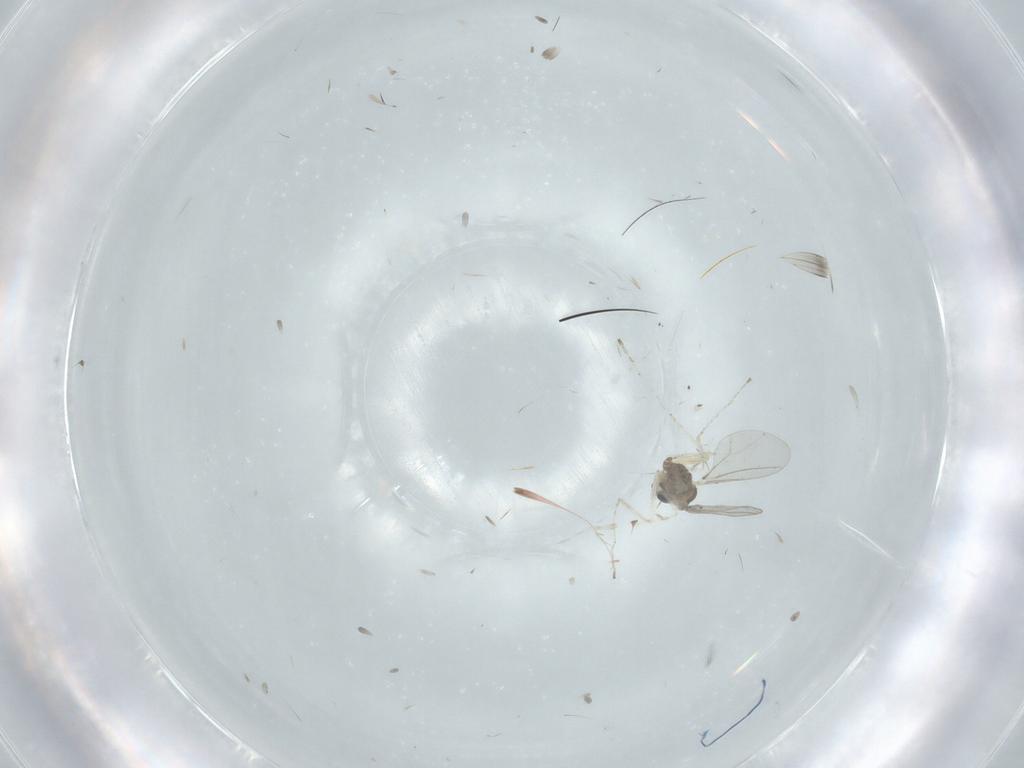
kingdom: Animalia
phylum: Arthropoda
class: Insecta
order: Diptera
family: Cecidomyiidae
